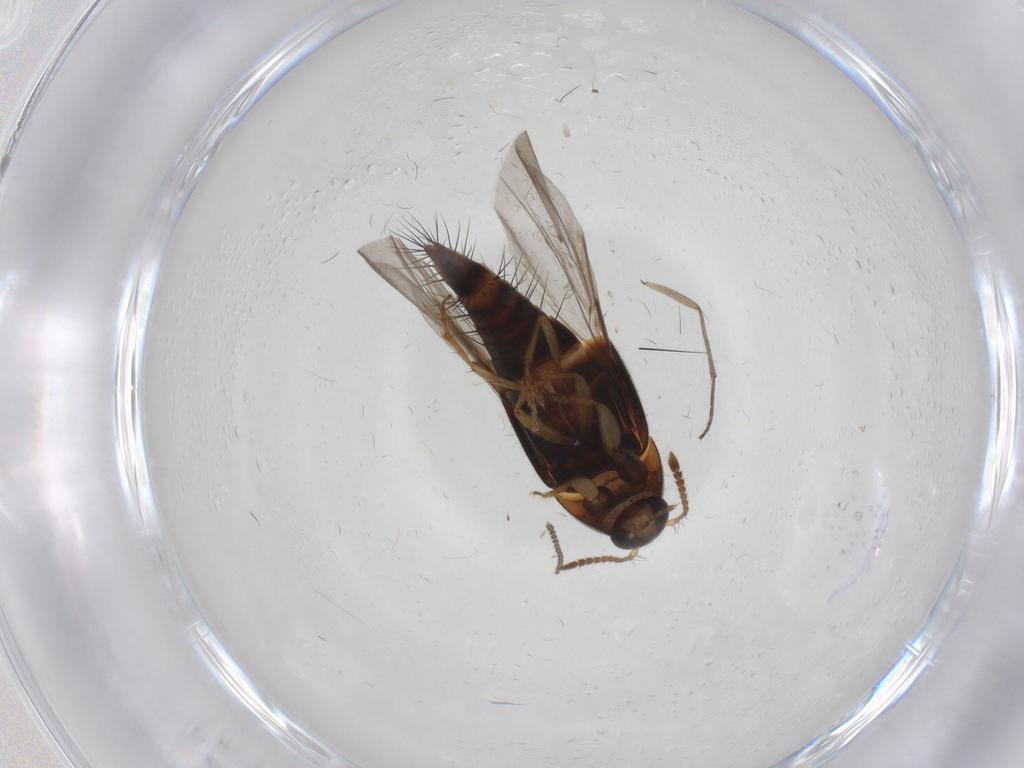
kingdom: Animalia
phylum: Arthropoda
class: Insecta
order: Coleoptera
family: Staphylinidae
